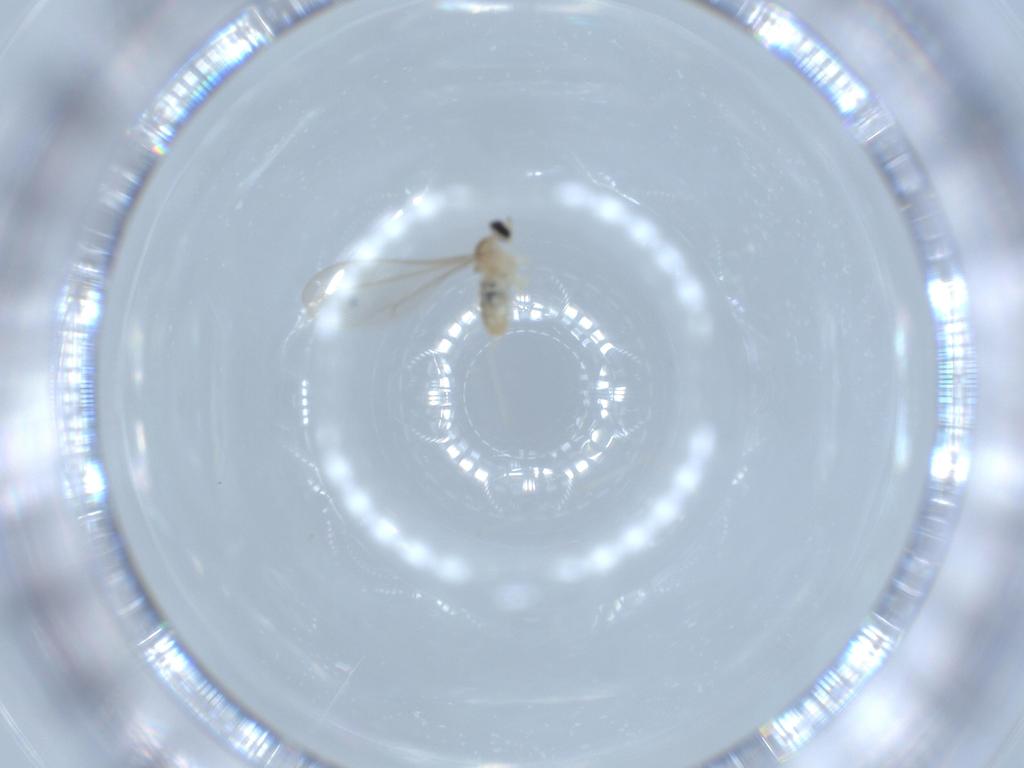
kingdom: Animalia
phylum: Arthropoda
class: Insecta
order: Diptera
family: Cecidomyiidae
